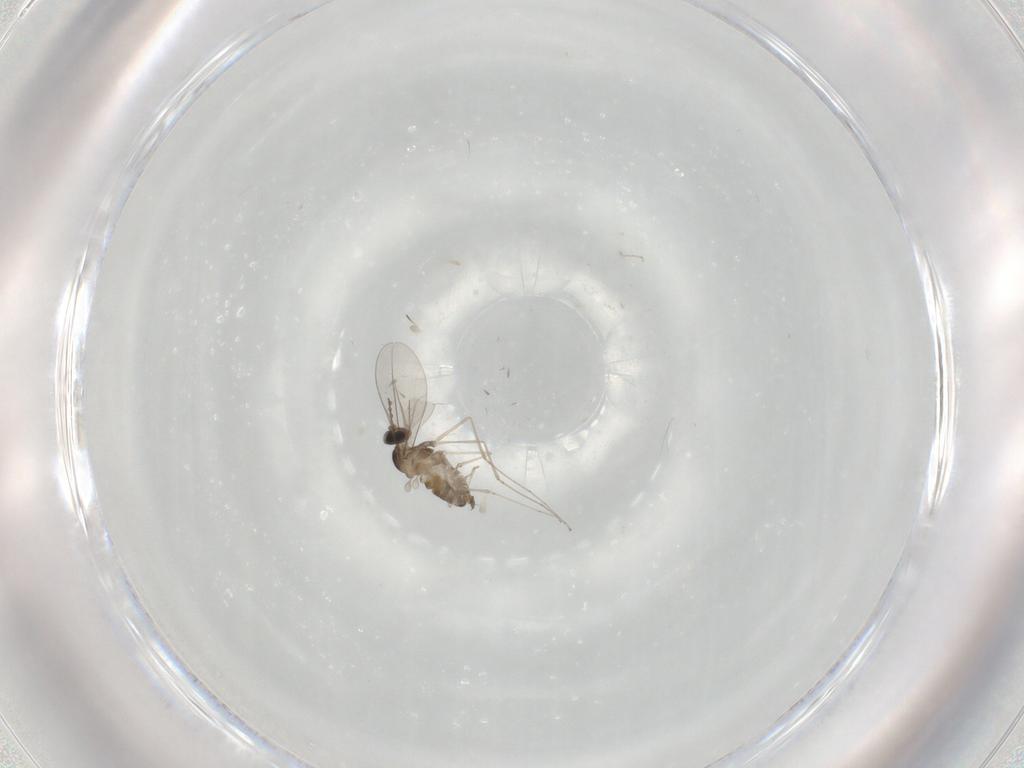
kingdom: Animalia
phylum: Arthropoda
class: Insecta
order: Diptera
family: Cecidomyiidae
